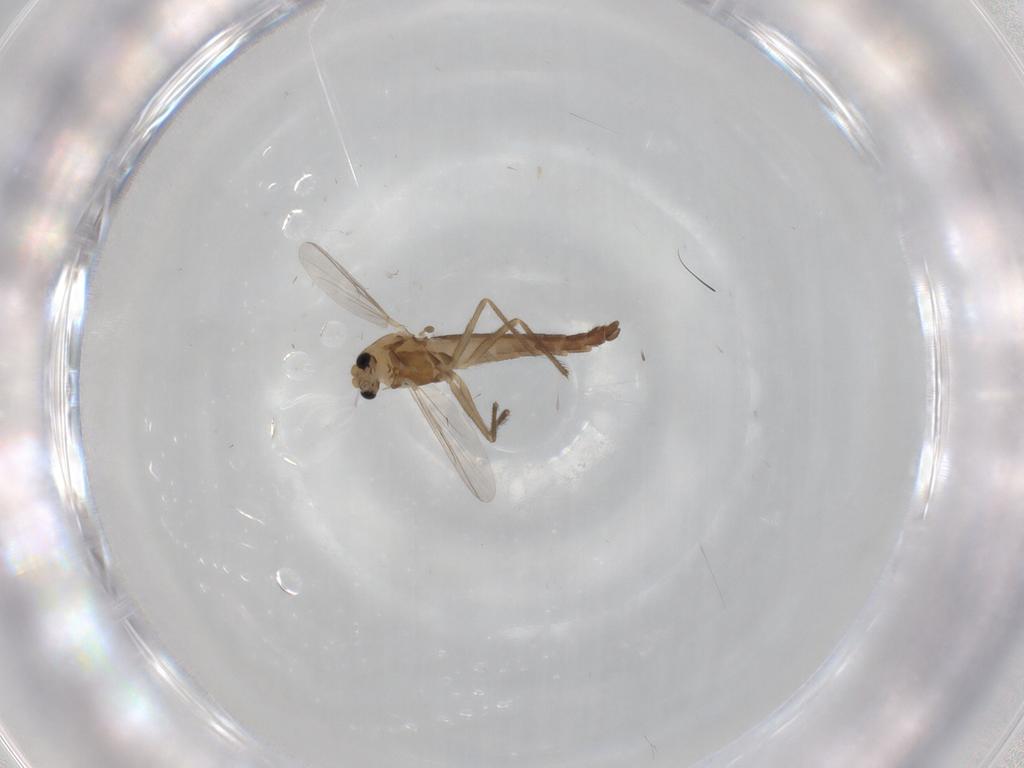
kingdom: Animalia
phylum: Arthropoda
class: Insecta
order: Diptera
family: Chironomidae
